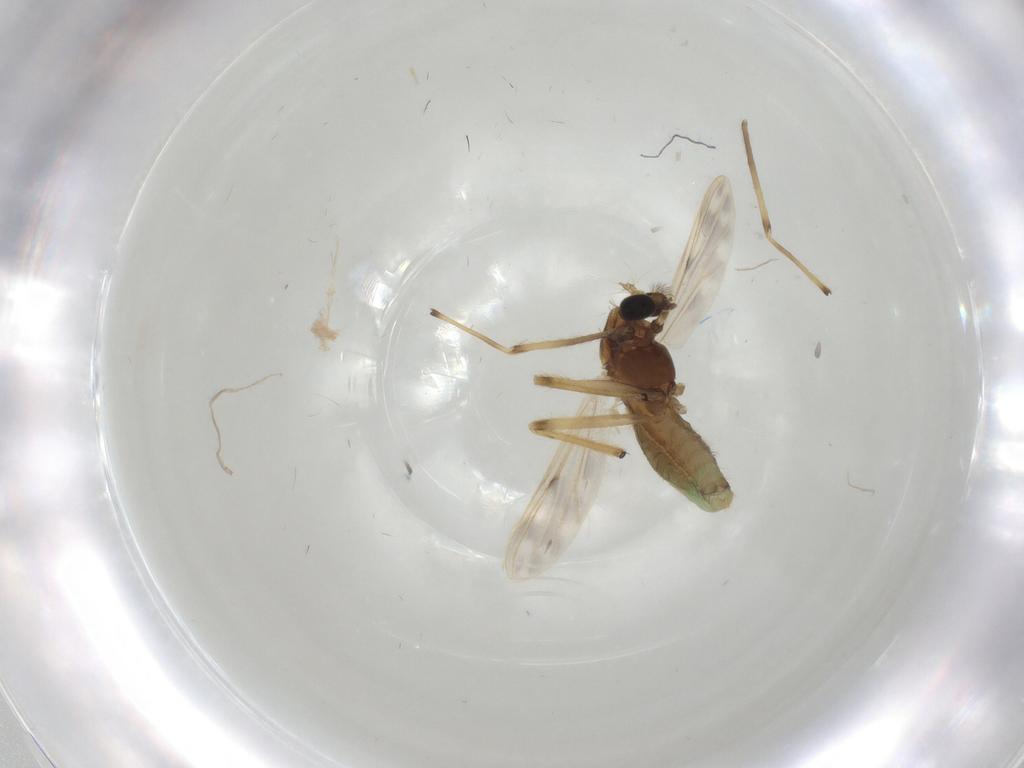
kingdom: Animalia
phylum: Arthropoda
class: Insecta
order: Diptera
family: Chironomidae
